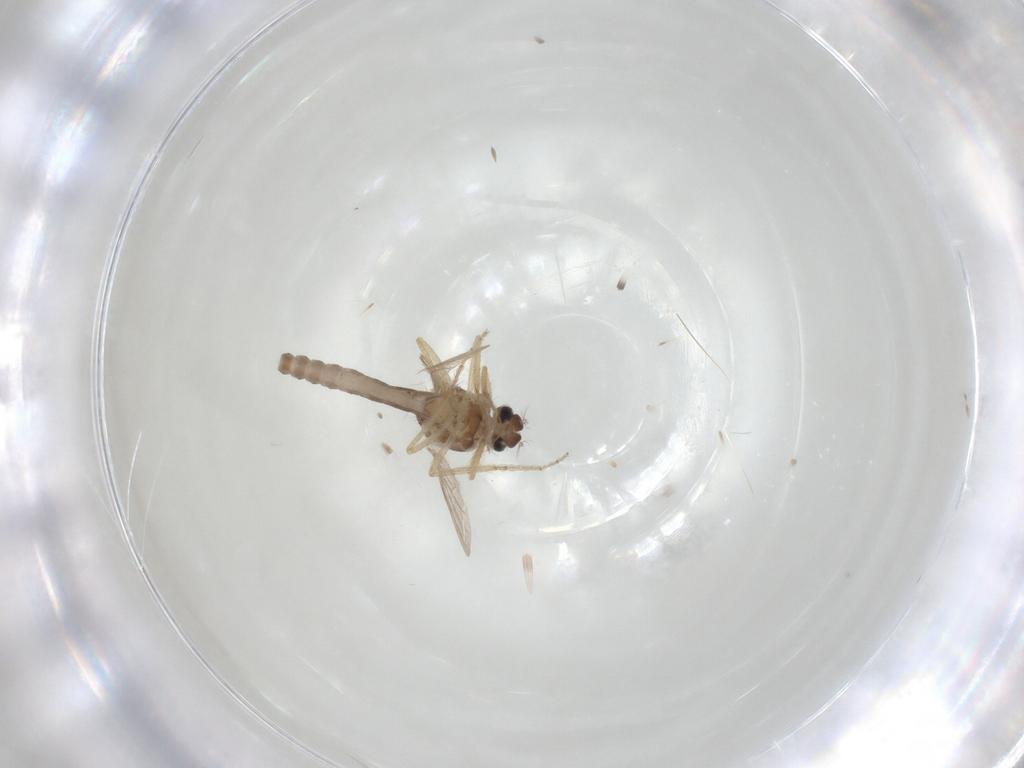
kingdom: Animalia
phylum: Arthropoda
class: Insecta
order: Diptera
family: Ceratopogonidae
